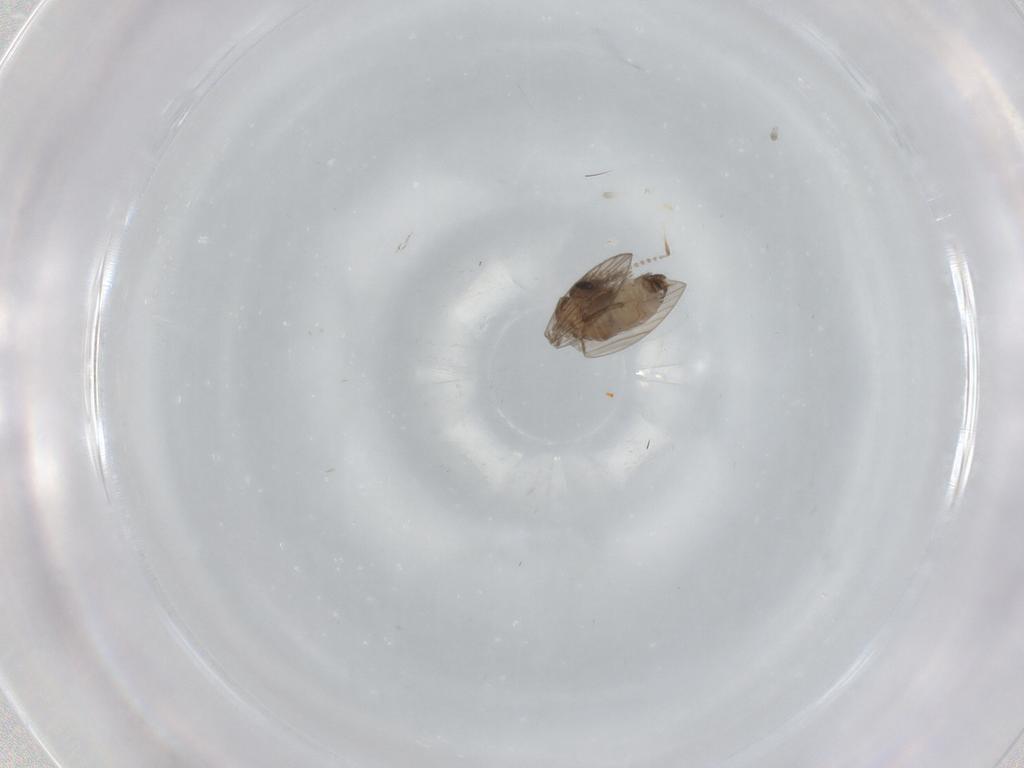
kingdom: Animalia
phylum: Arthropoda
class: Insecta
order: Diptera
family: Psychodidae
